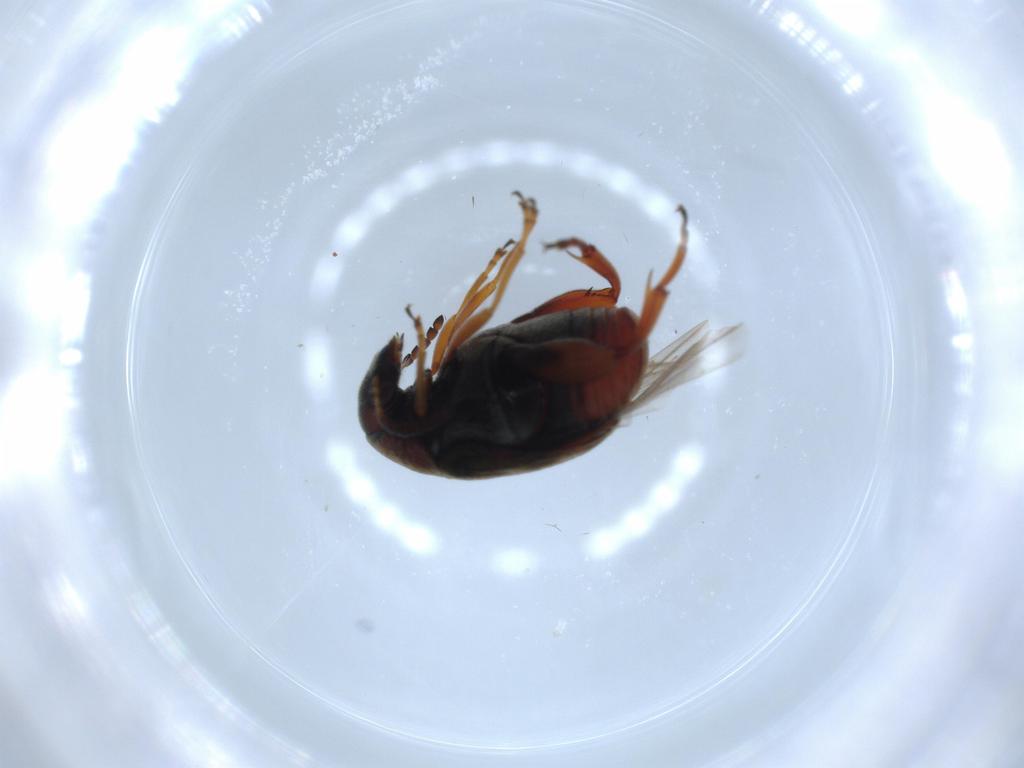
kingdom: Animalia
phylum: Arthropoda
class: Insecta
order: Coleoptera
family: Chrysomelidae
